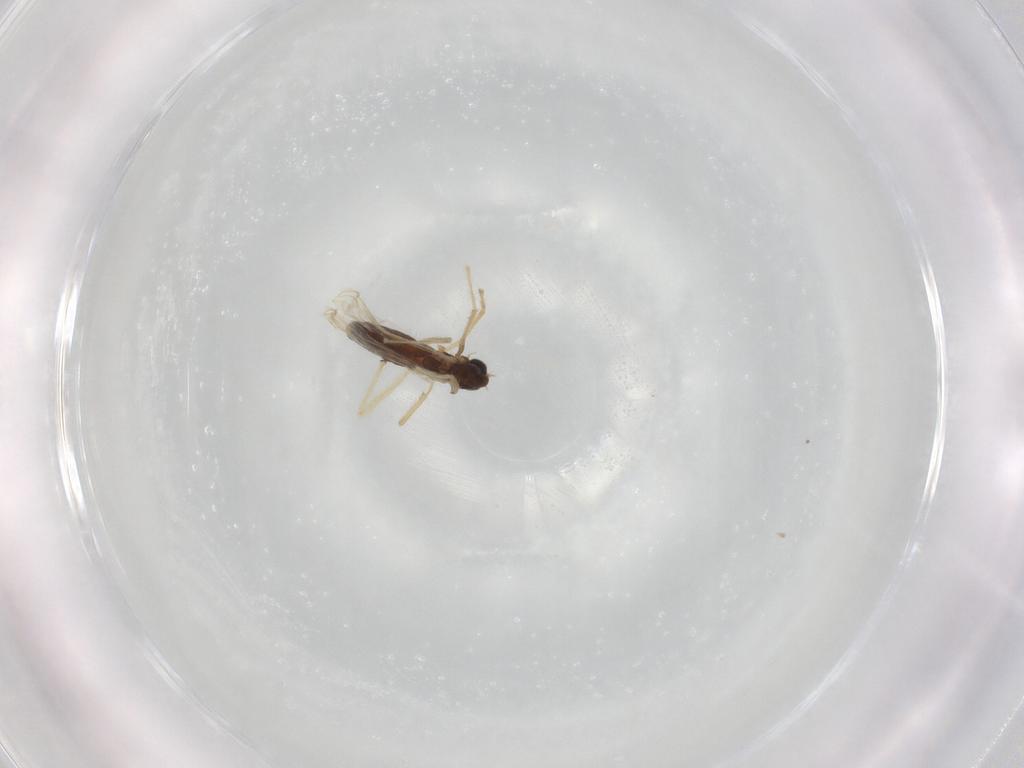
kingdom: Animalia
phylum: Arthropoda
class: Insecta
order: Diptera
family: Chironomidae
